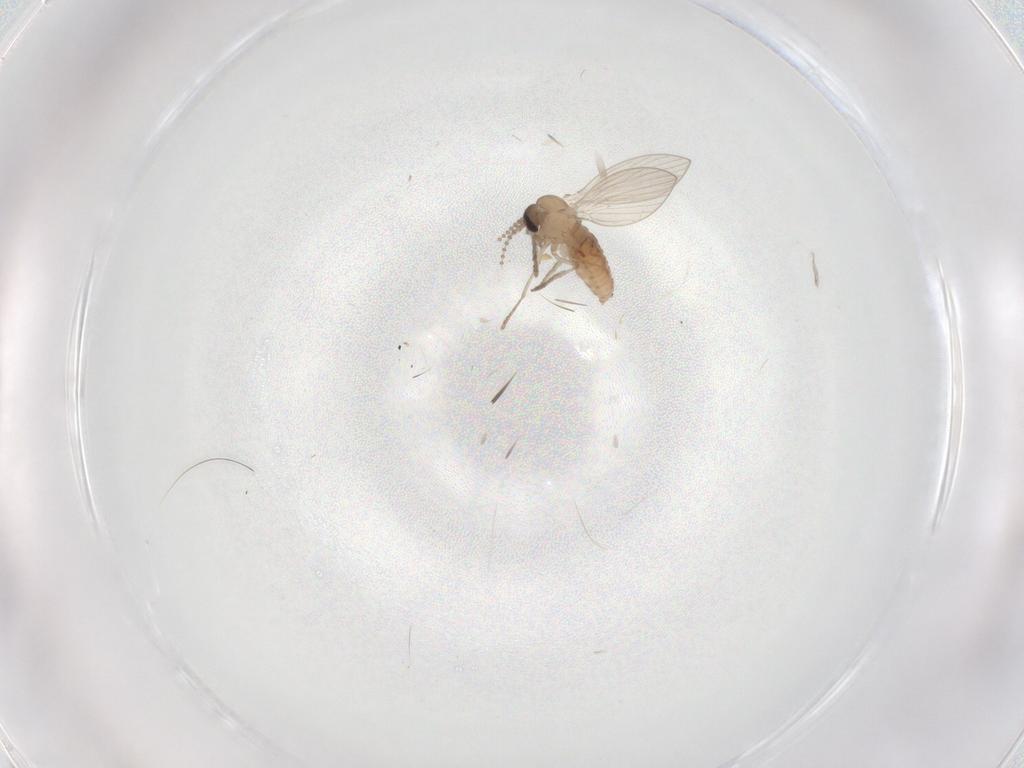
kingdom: Animalia
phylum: Arthropoda
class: Insecta
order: Diptera
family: Psychodidae
